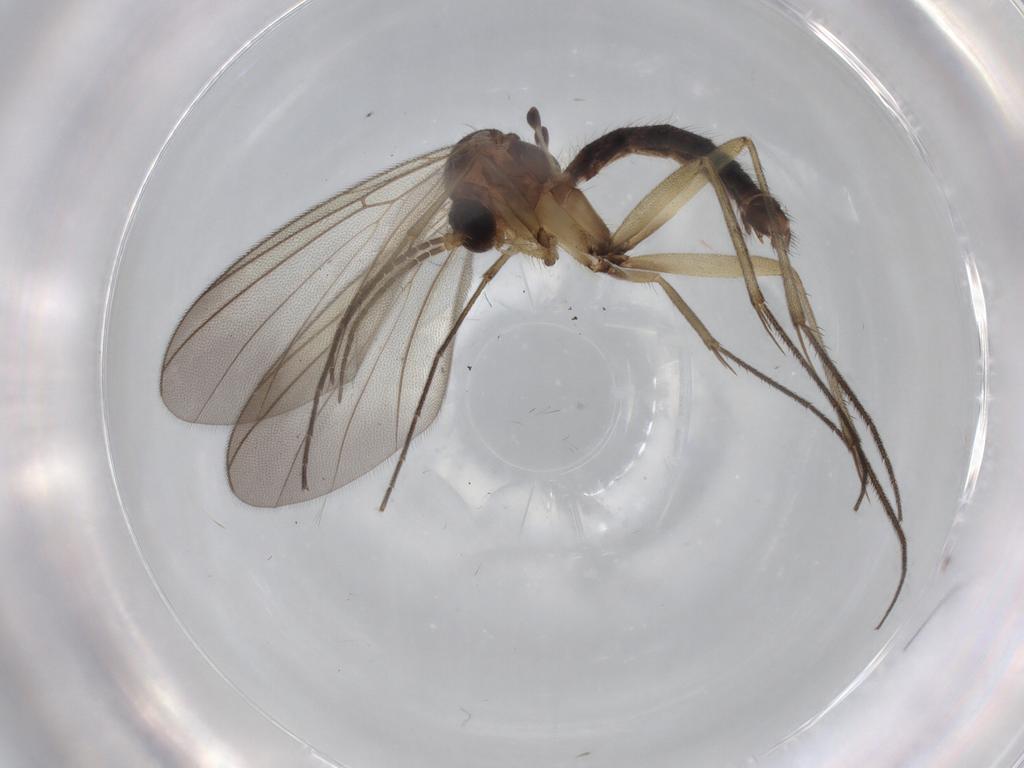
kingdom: Animalia
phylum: Arthropoda
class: Insecta
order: Diptera
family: Mycetophilidae
